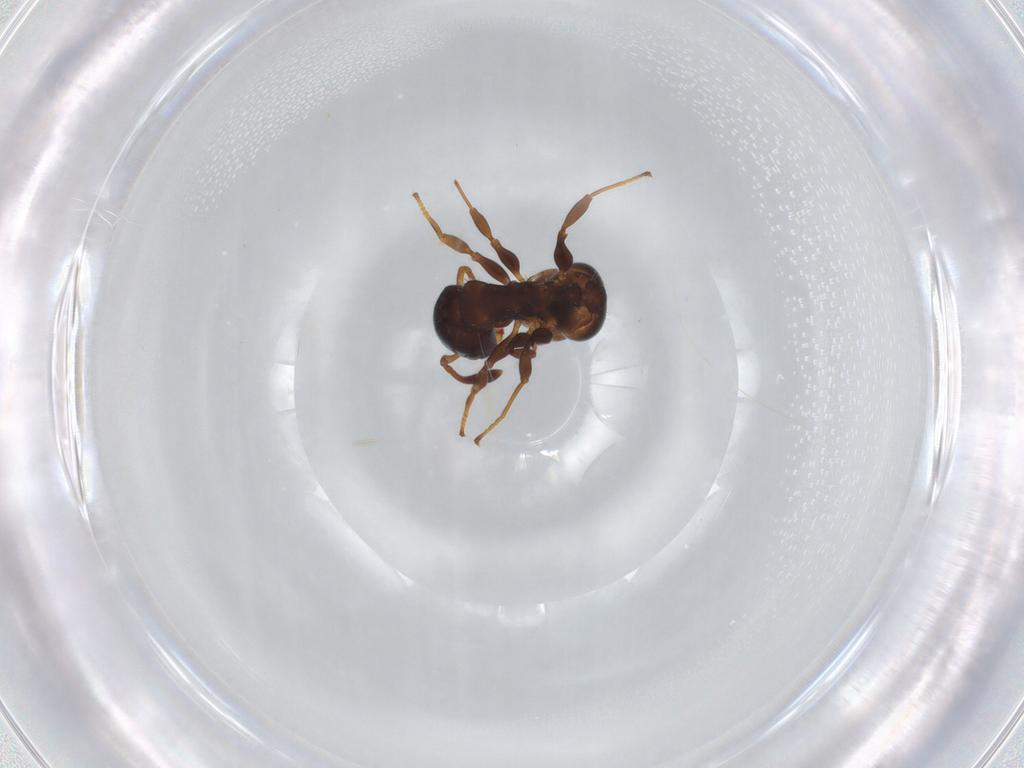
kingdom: Animalia
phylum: Arthropoda
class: Insecta
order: Hymenoptera
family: Formicidae
